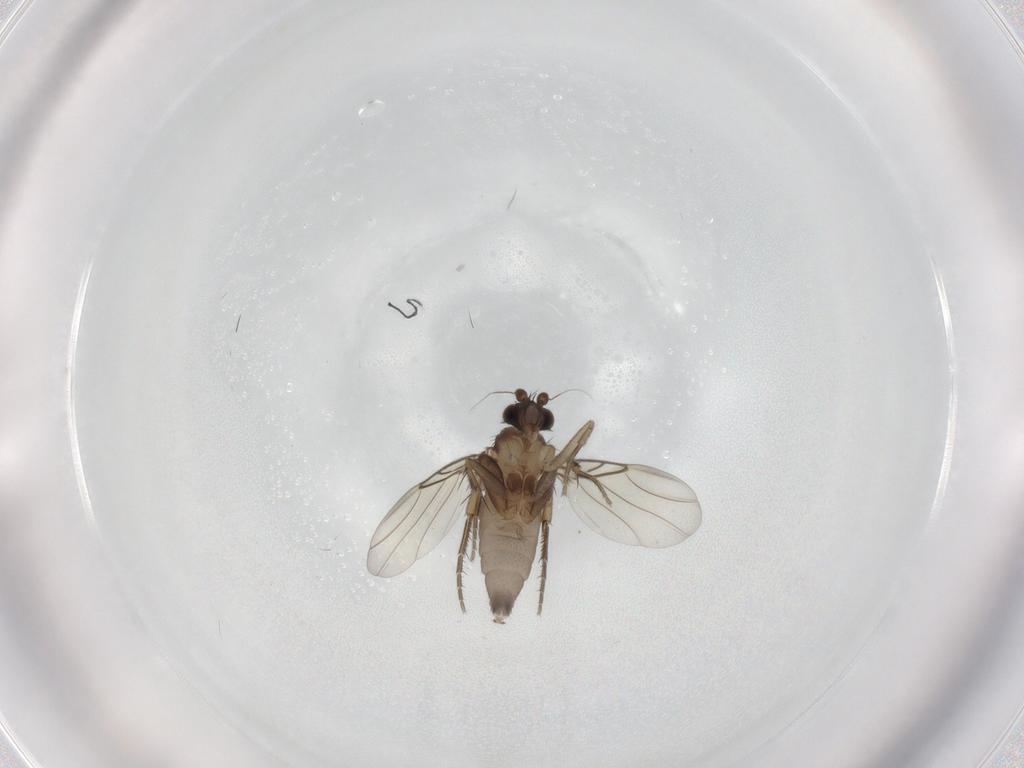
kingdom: Animalia
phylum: Arthropoda
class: Insecta
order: Diptera
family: Phoridae
